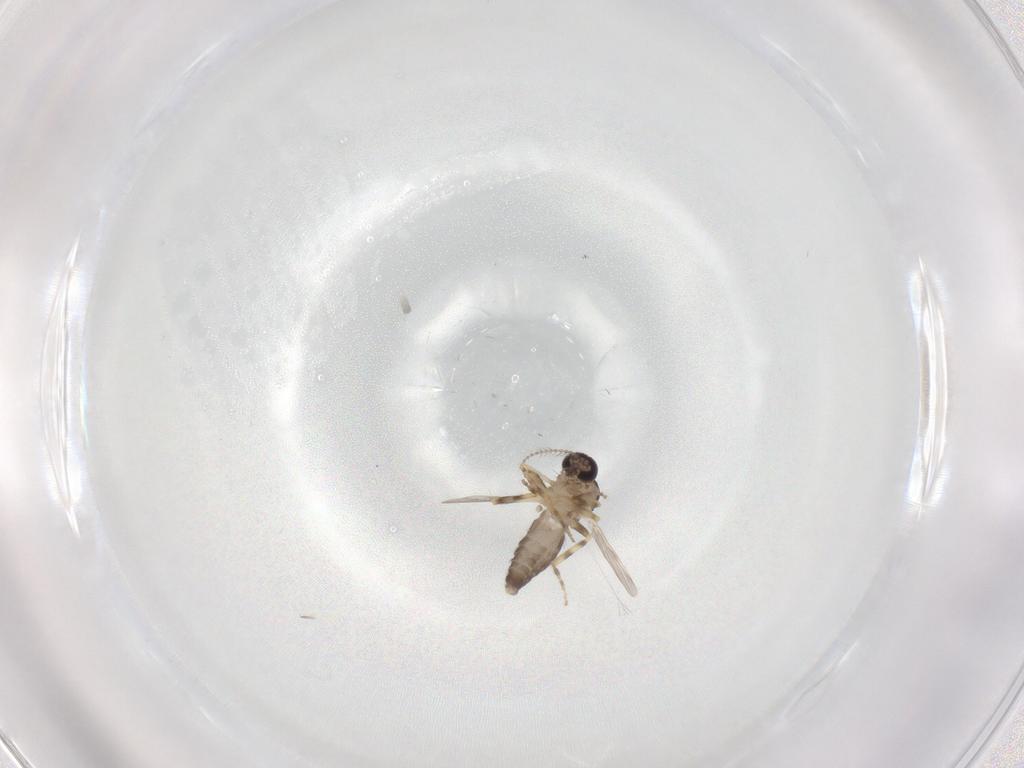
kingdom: Animalia
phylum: Arthropoda
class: Insecta
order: Diptera
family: Ceratopogonidae
